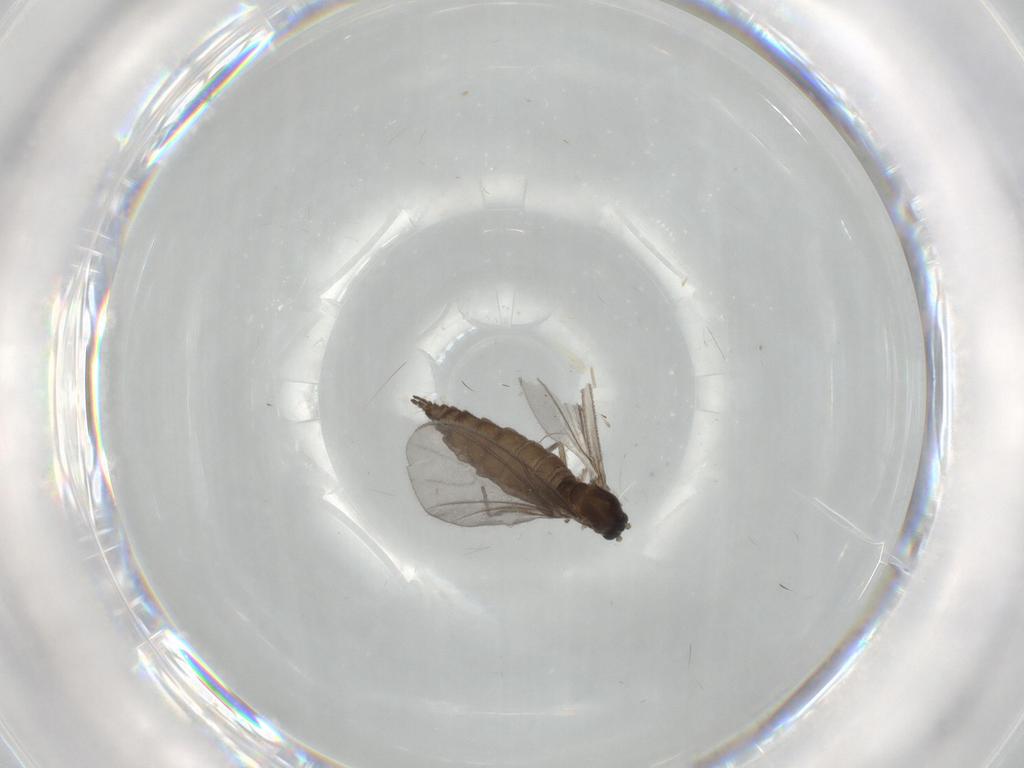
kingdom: Animalia
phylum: Arthropoda
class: Insecta
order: Diptera
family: Sciaridae
